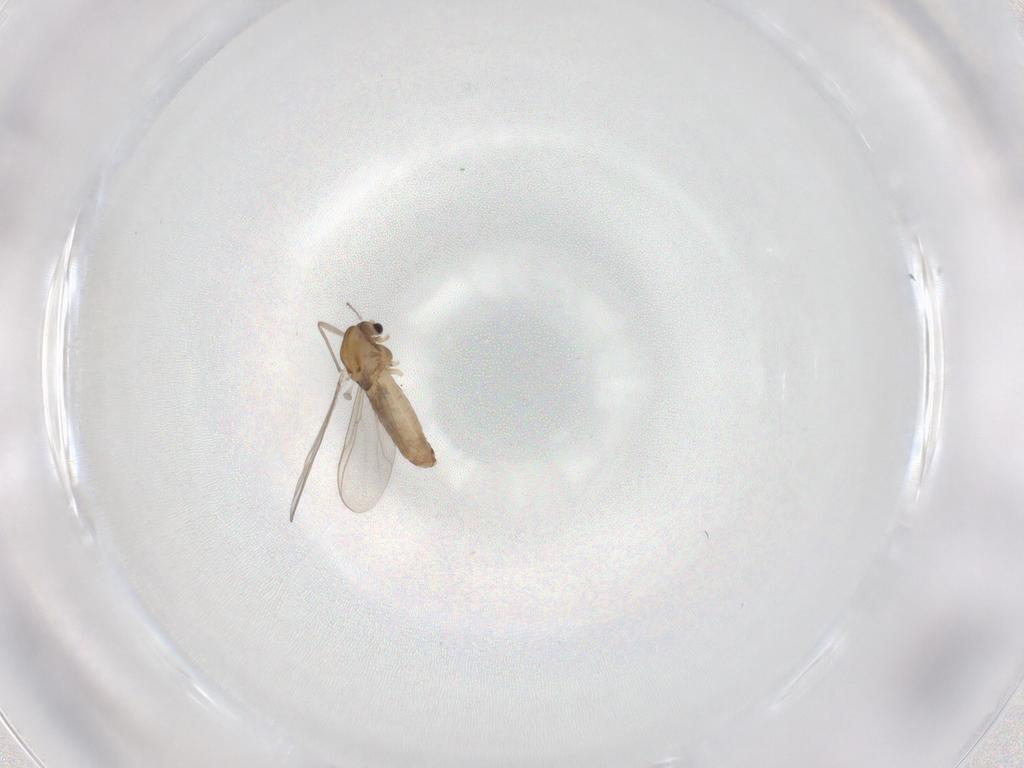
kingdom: Animalia
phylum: Arthropoda
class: Insecta
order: Diptera
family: Chironomidae
